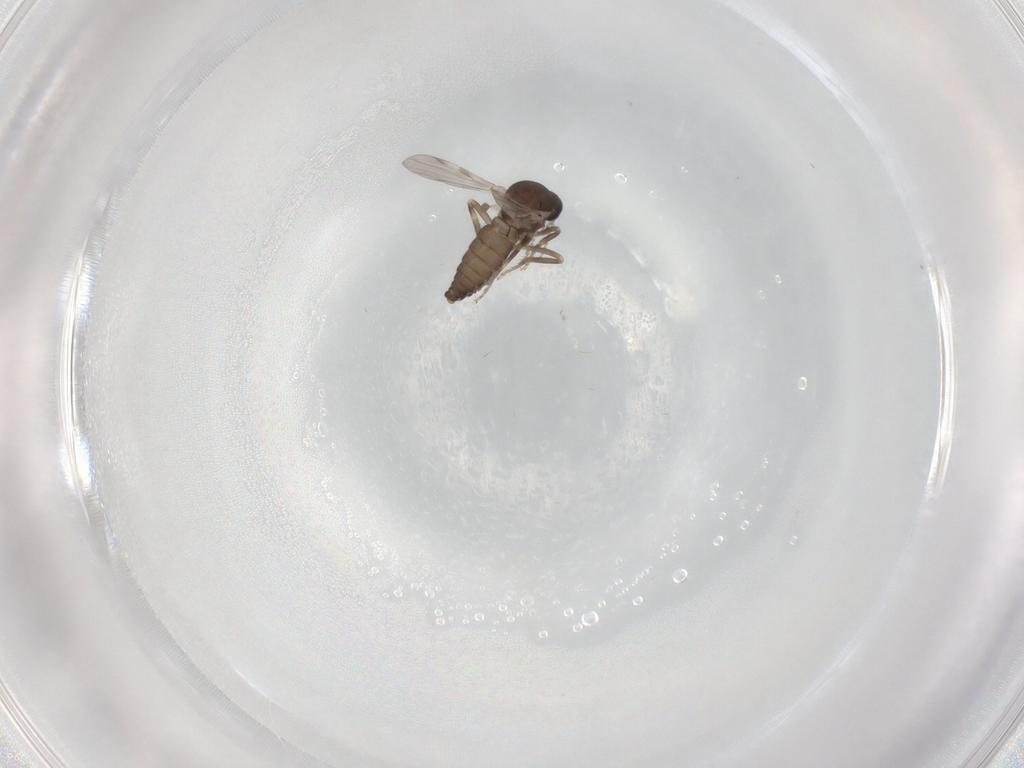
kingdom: Animalia
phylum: Arthropoda
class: Insecta
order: Diptera
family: Ceratopogonidae
